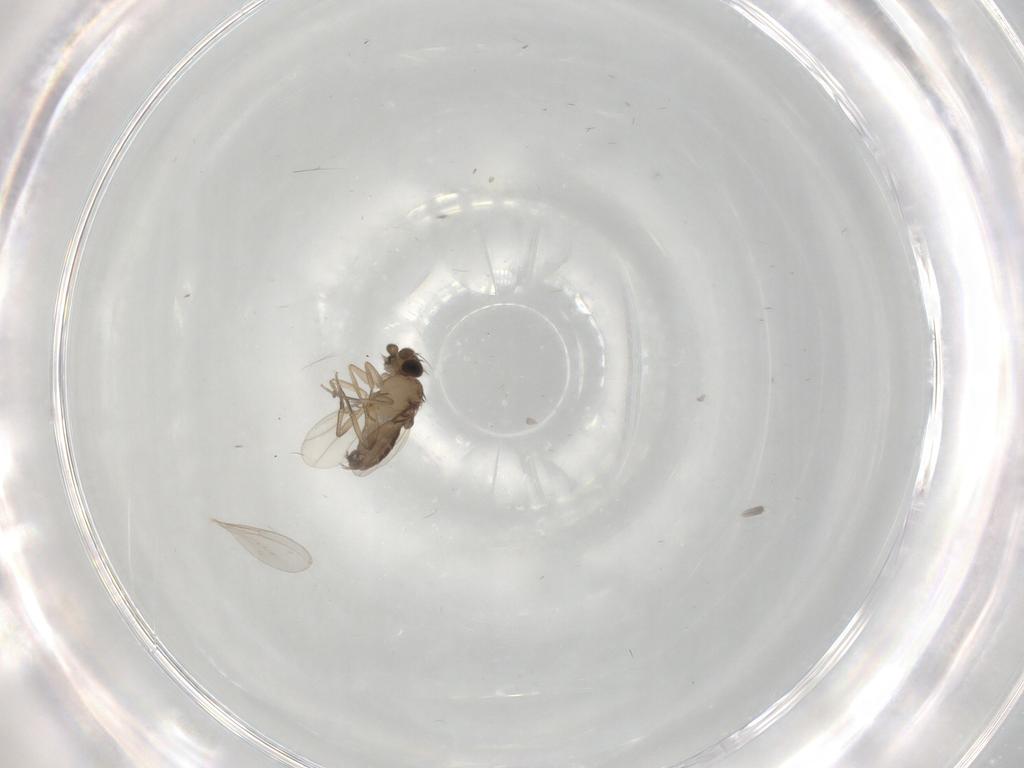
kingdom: Animalia
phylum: Arthropoda
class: Insecta
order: Diptera
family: Phoridae
